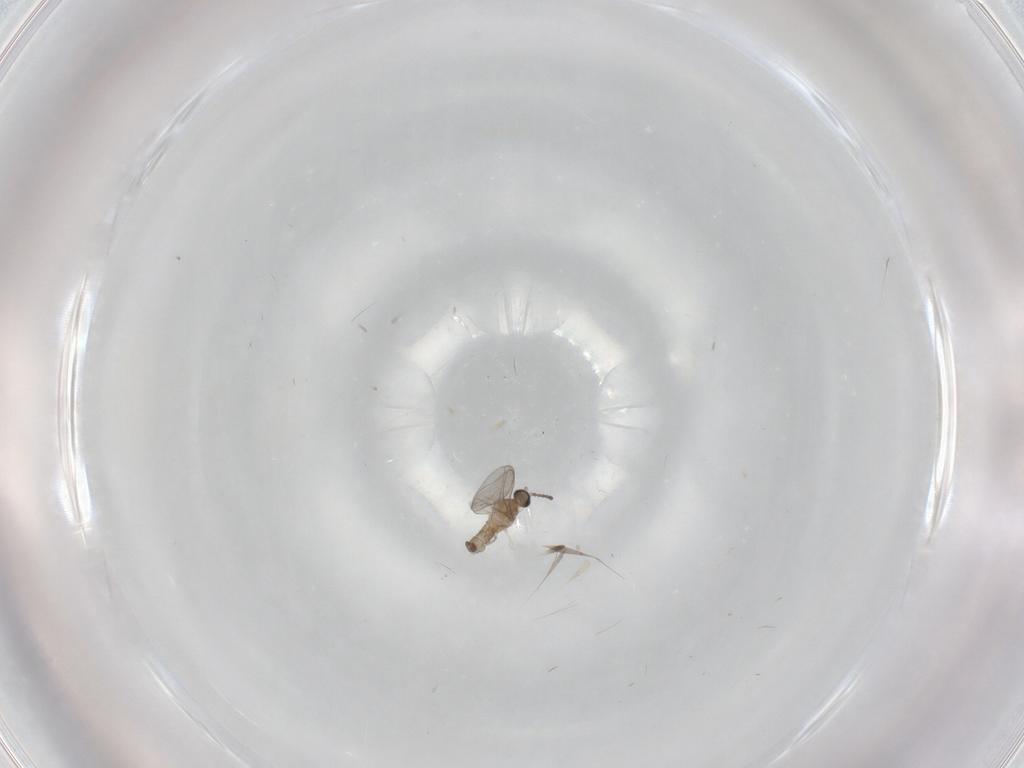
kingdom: Animalia
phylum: Arthropoda
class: Insecta
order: Diptera
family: Cecidomyiidae
